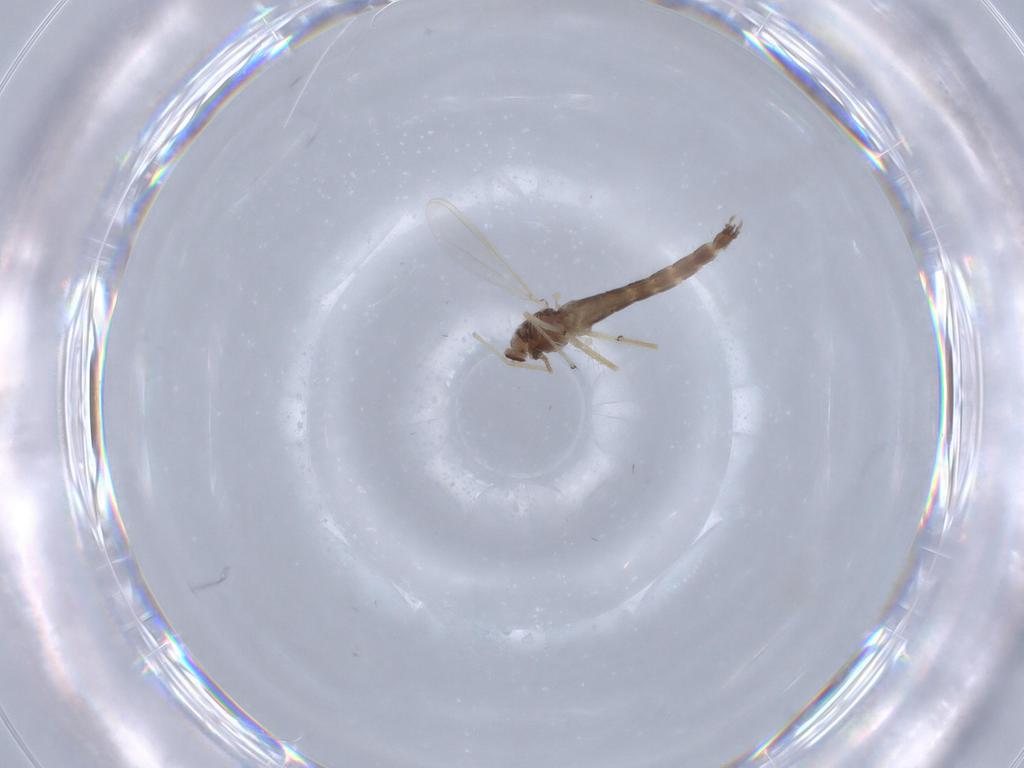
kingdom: Animalia
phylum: Arthropoda
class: Insecta
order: Diptera
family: Chironomidae
